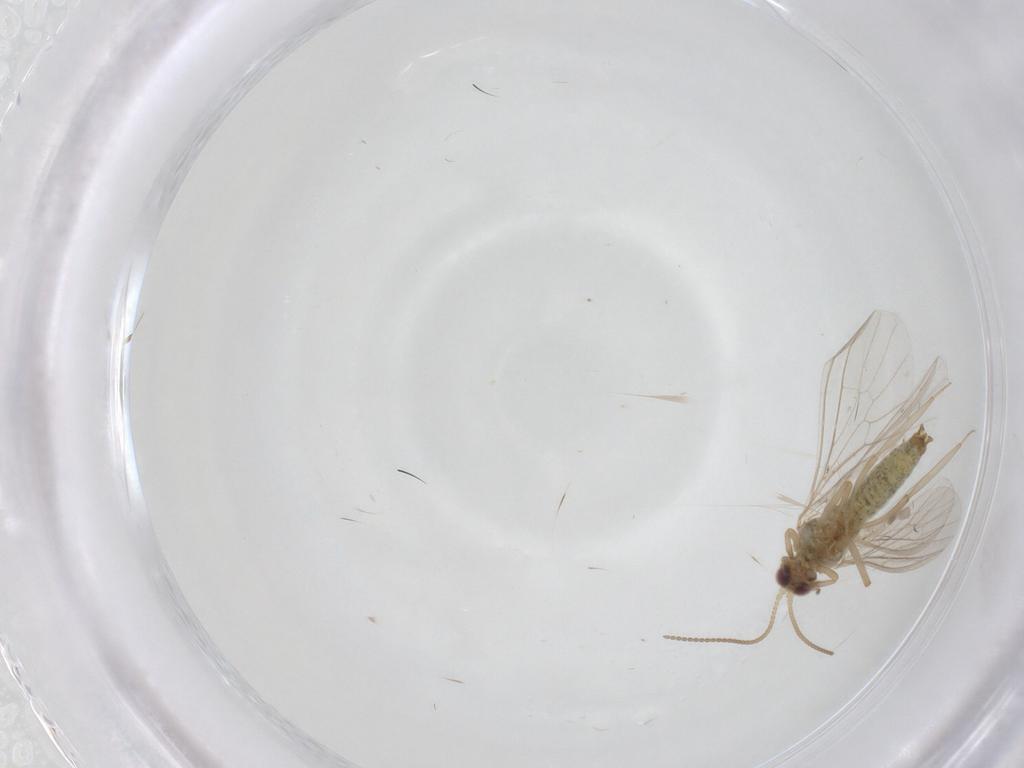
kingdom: Animalia
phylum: Arthropoda
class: Insecta
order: Neuroptera
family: Coniopterygidae
